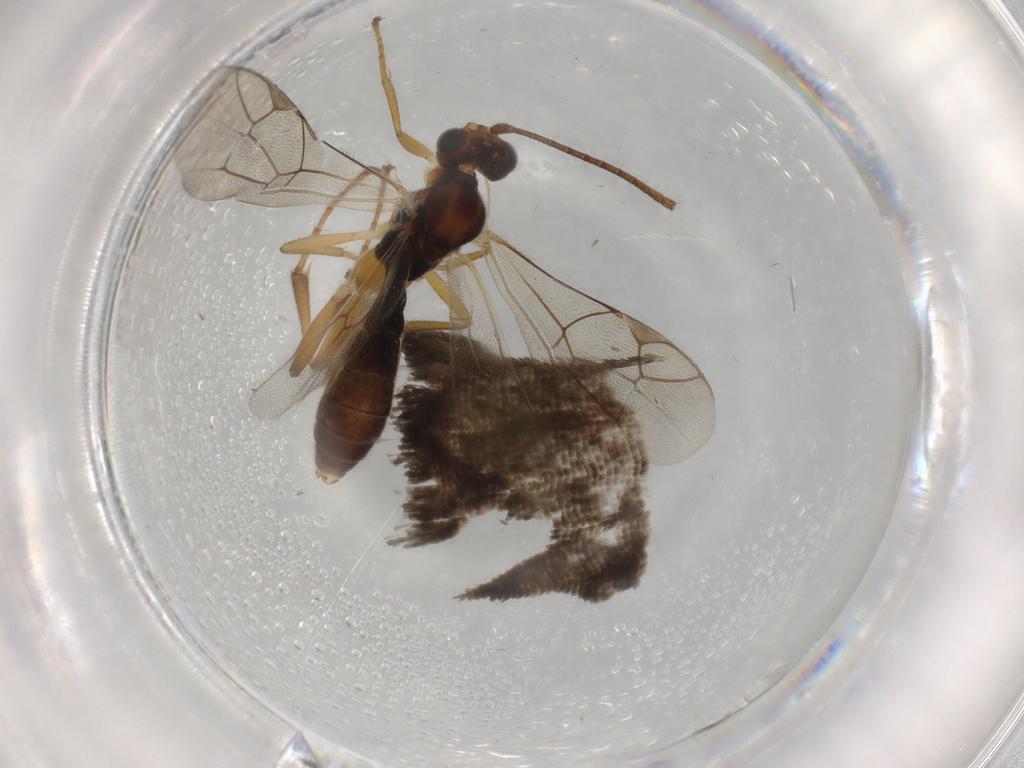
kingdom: Animalia
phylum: Arthropoda
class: Insecta
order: Hymenoptera
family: Ichneumonidae
